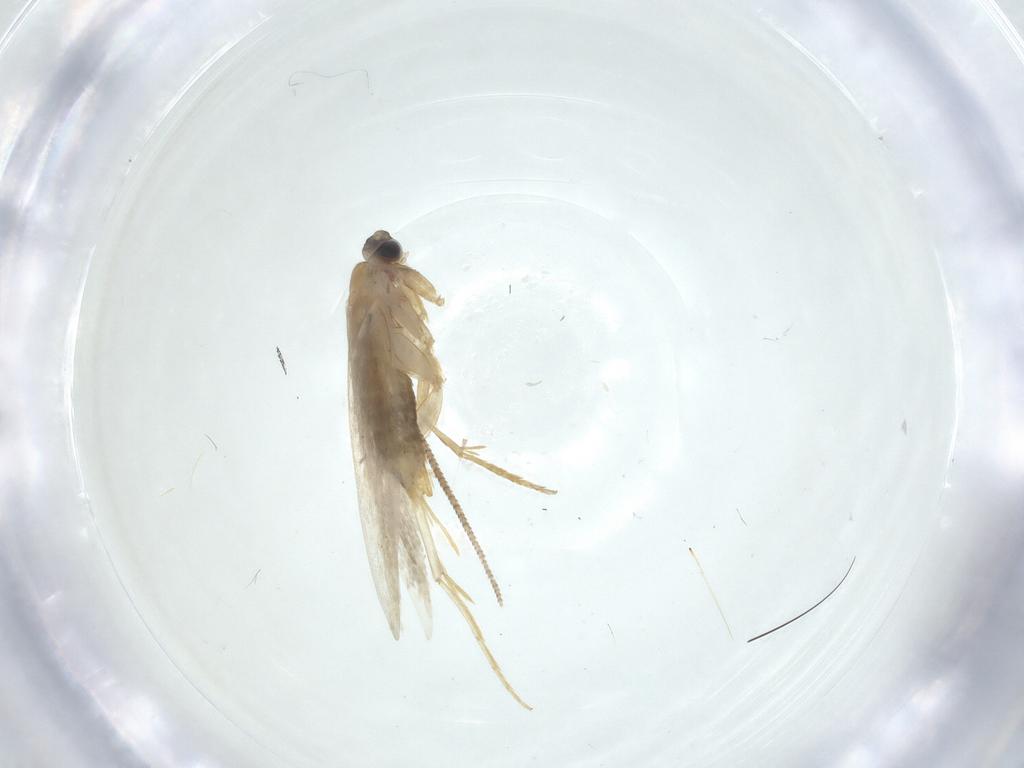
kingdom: Animalia
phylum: Arthropoda
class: Insecta
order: Lepidoptera
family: Tineidae
